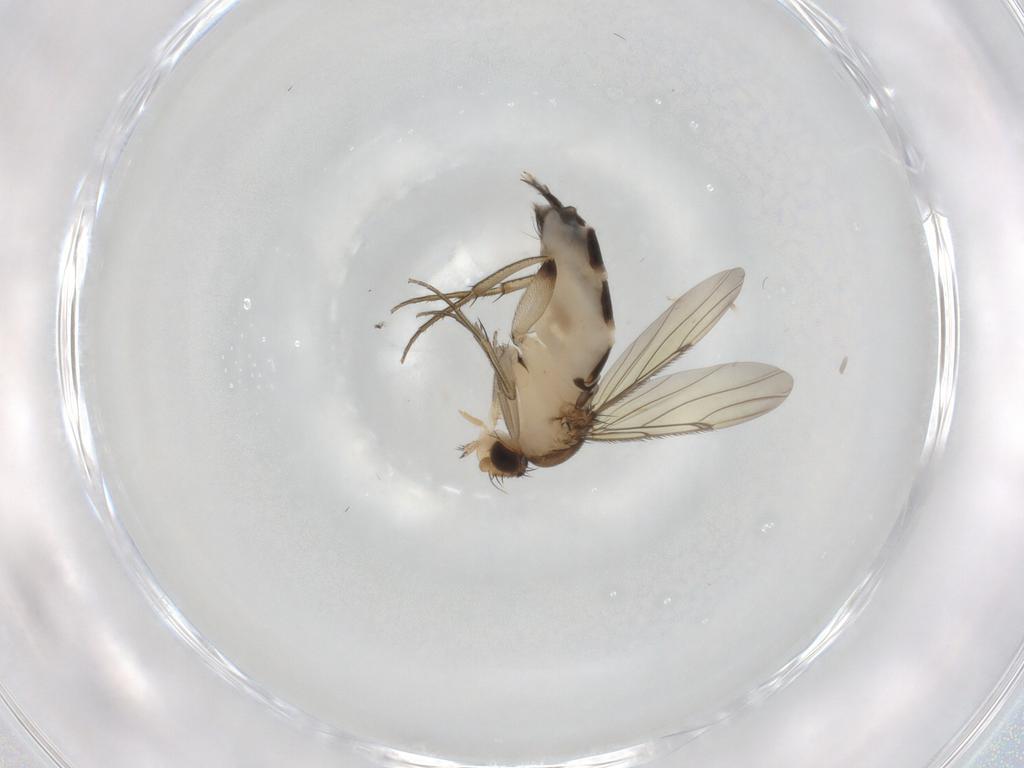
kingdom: Animalia
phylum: Arthropoda
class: Insecta
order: Diptera
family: Phoridae
